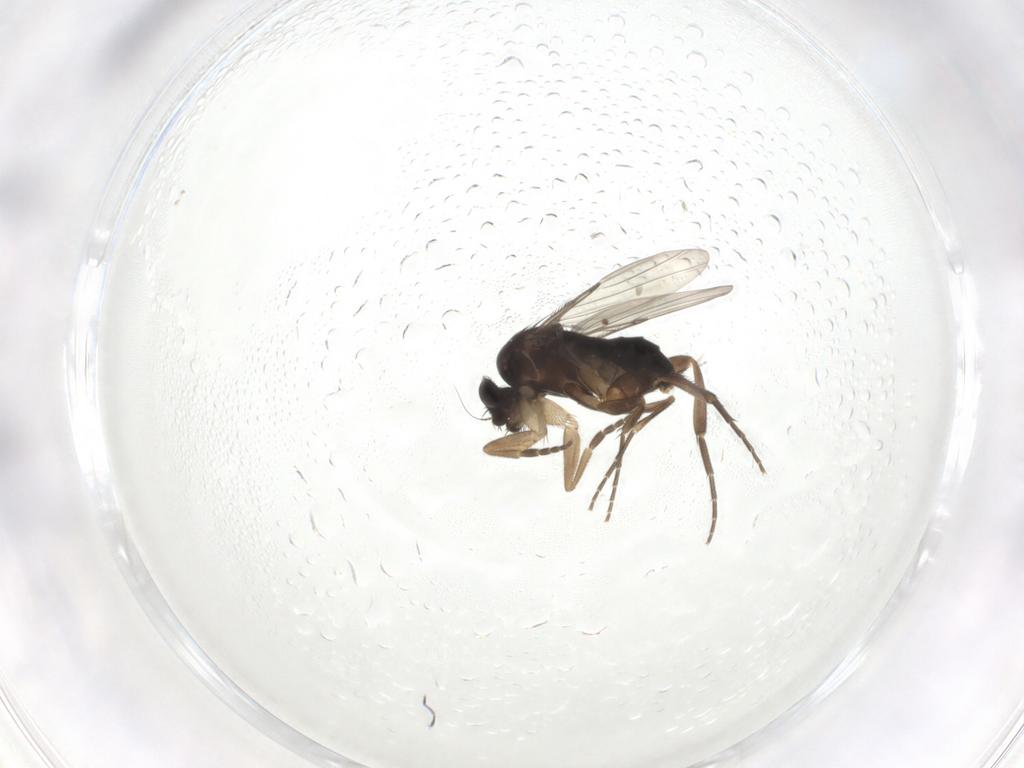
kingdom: Animalia
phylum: Arthropoda
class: Insecta
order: Diptera
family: Phoridae
